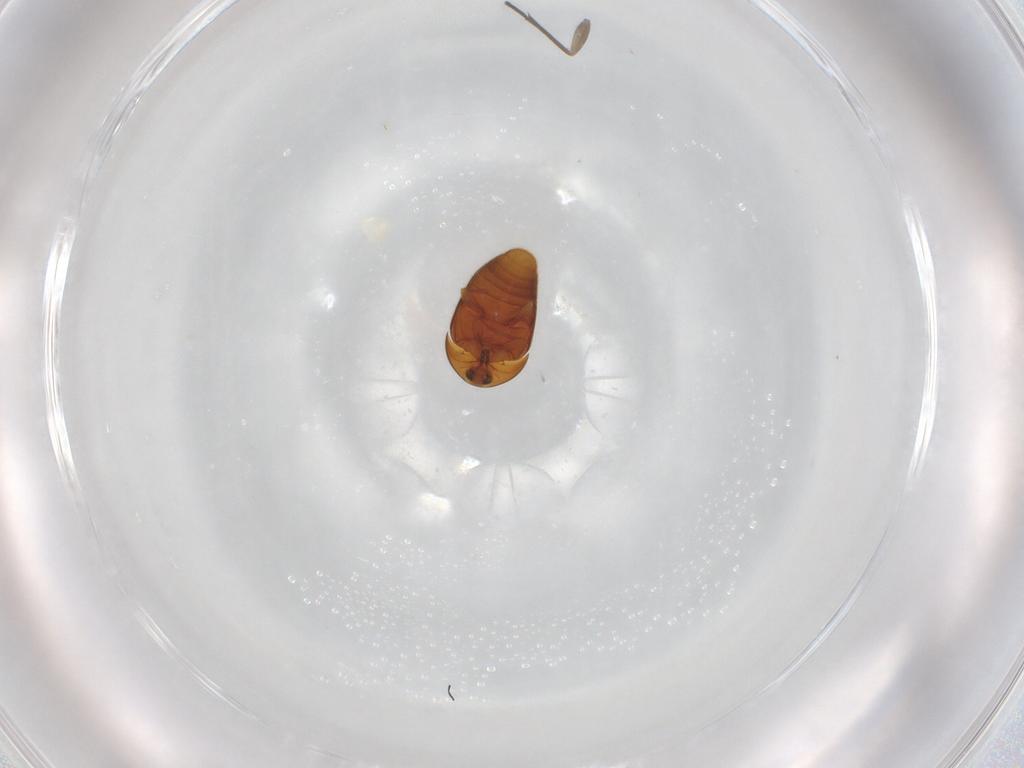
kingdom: Animalia
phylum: Arthropoda
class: Insecta
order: Coleoptera
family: Corylophidae
